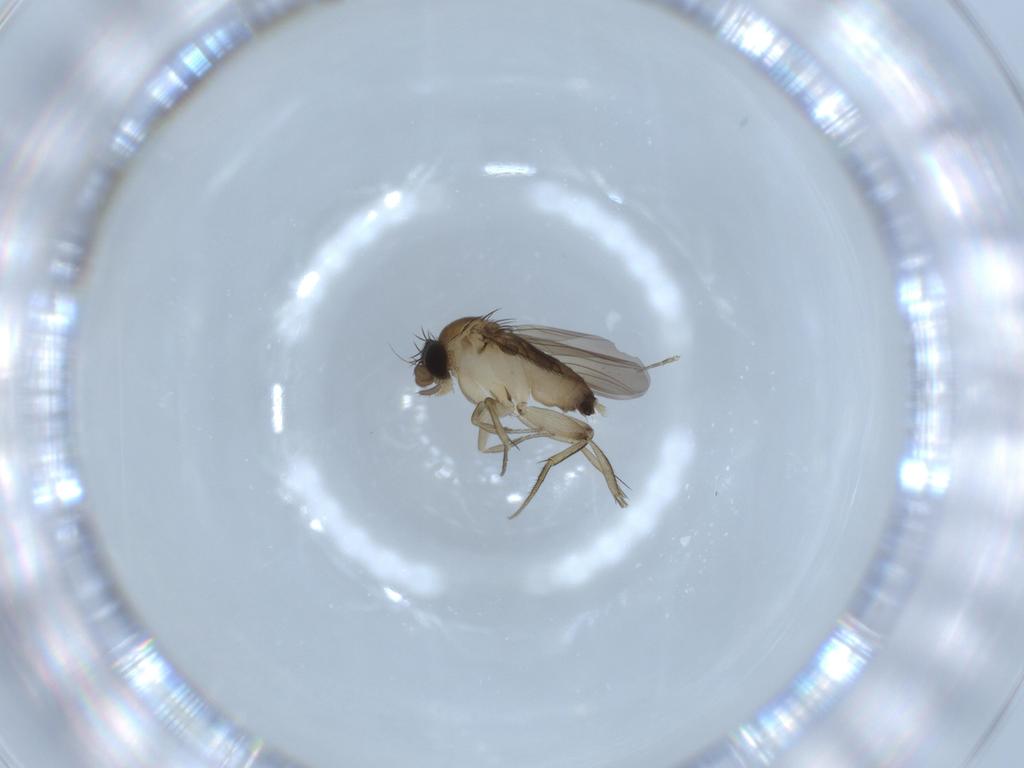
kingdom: Animalia
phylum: Arthropoda
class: Insecta
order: Diptera
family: Phoridae
